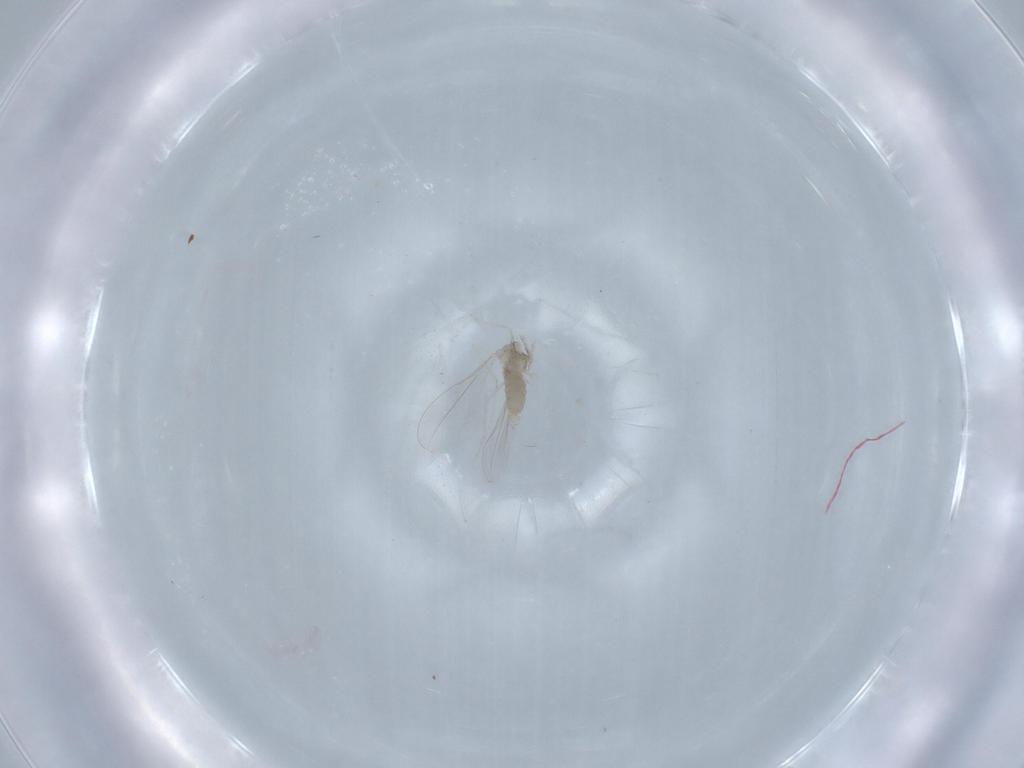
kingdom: Animalia
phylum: Arthropoda
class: Insecta
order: Diptera
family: Cecidomyiidae
